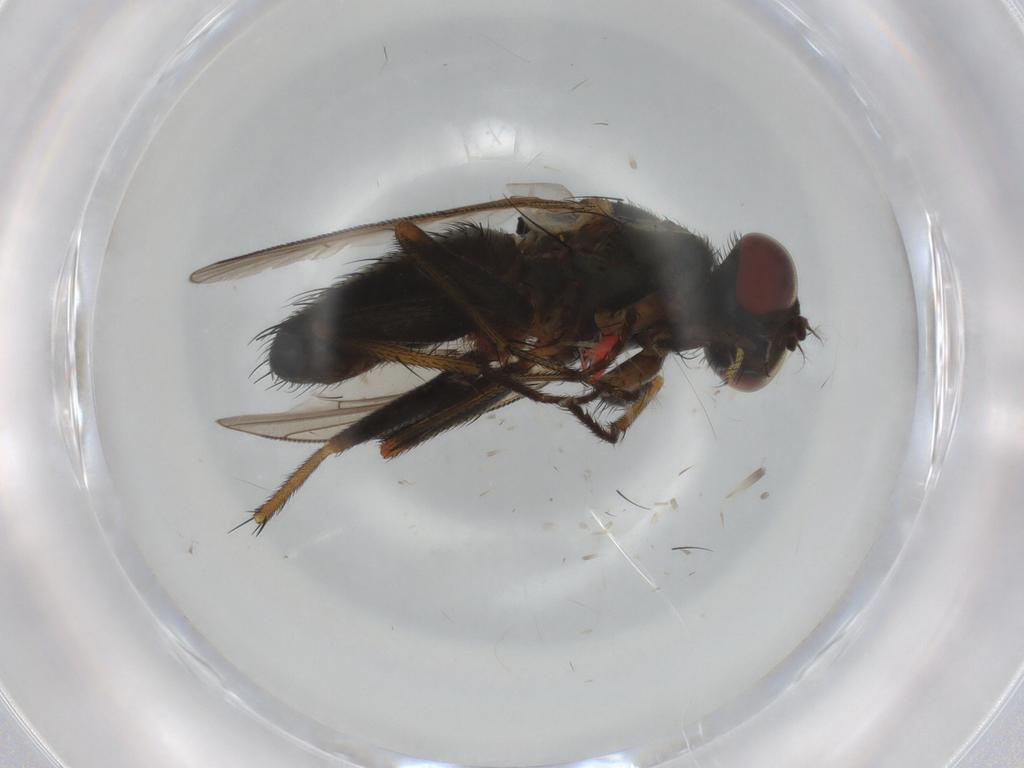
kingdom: Animalia
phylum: Arthropoda
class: Insecta
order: Diptera
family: Muscidae
